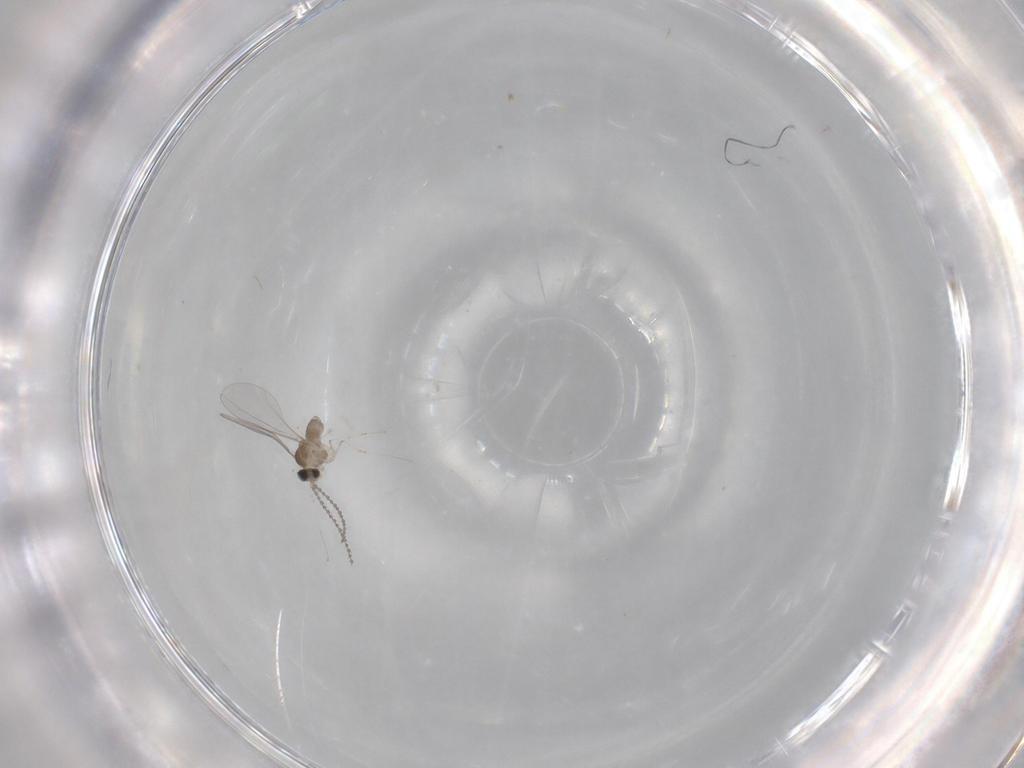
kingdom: Animalia
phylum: Arthropoda
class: Insecta
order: Diptera
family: Cecidomyiidae
